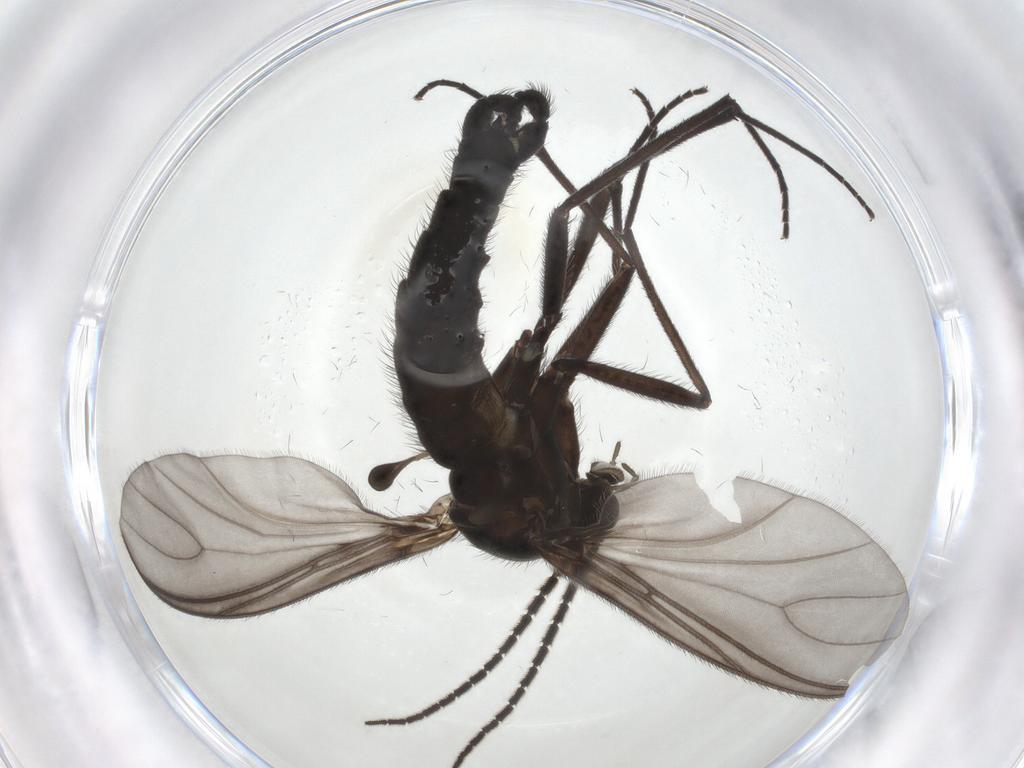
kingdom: Animalia
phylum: Arthropoda
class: Insecta
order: Diptera
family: Sciaridae
